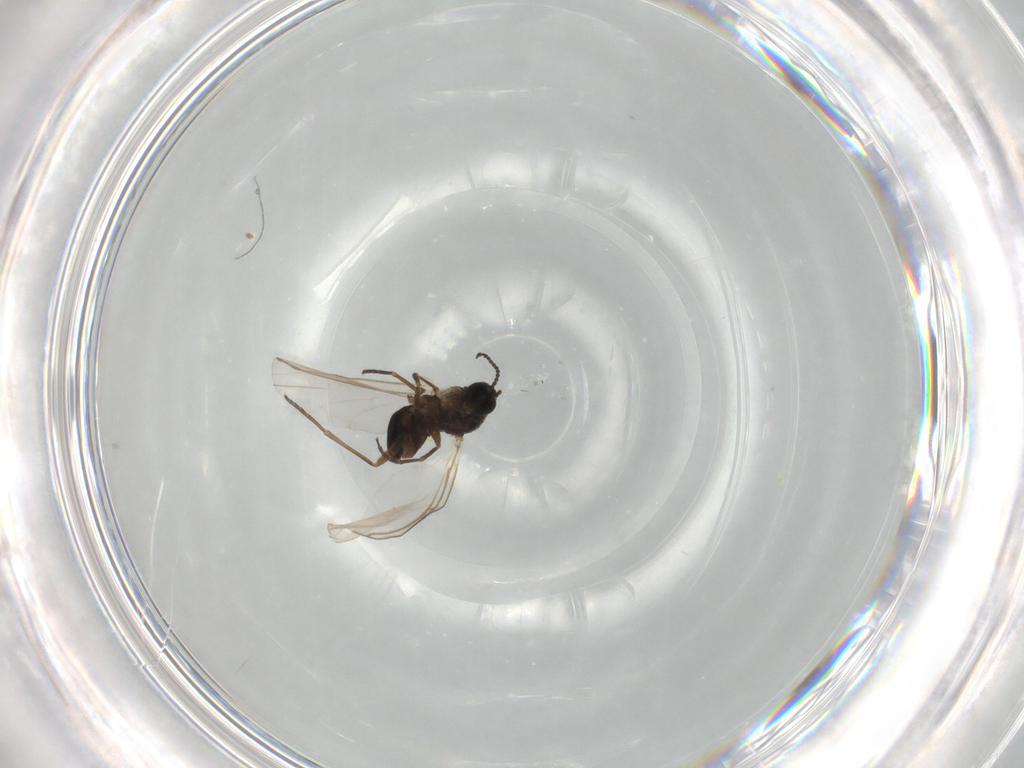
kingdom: Animalia
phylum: Arthropoda
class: Insecta
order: Diptera
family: Sciaridae
